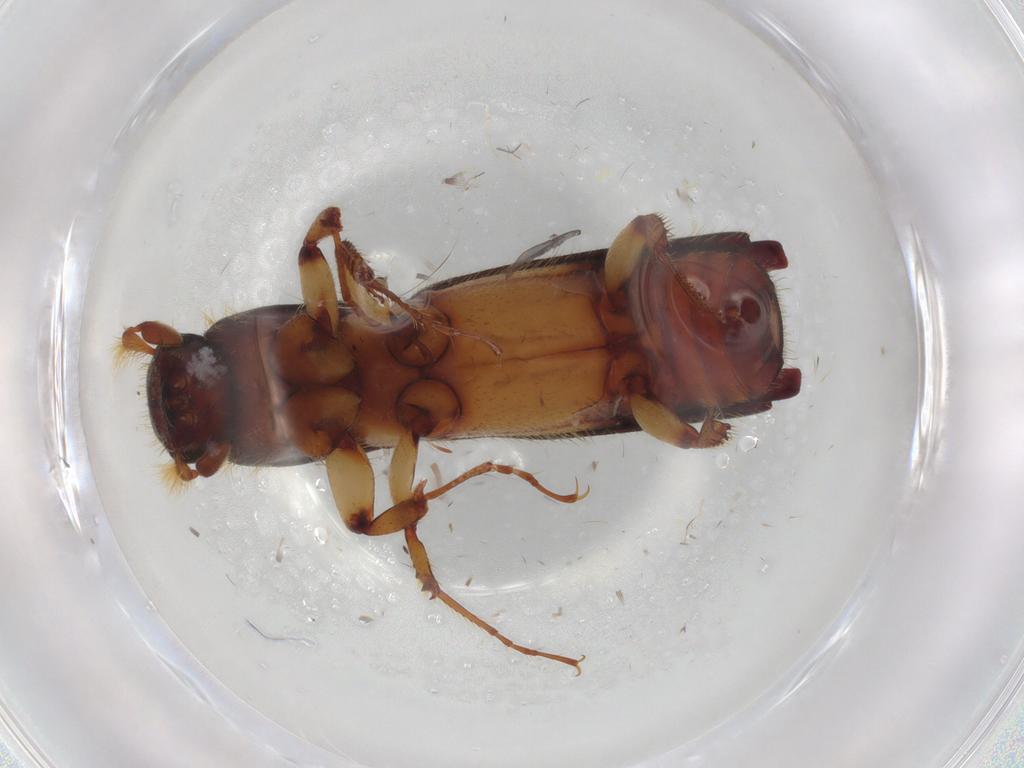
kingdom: Animalia
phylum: Arthropoda
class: Insecta
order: Coleoptera
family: Curculionidae
